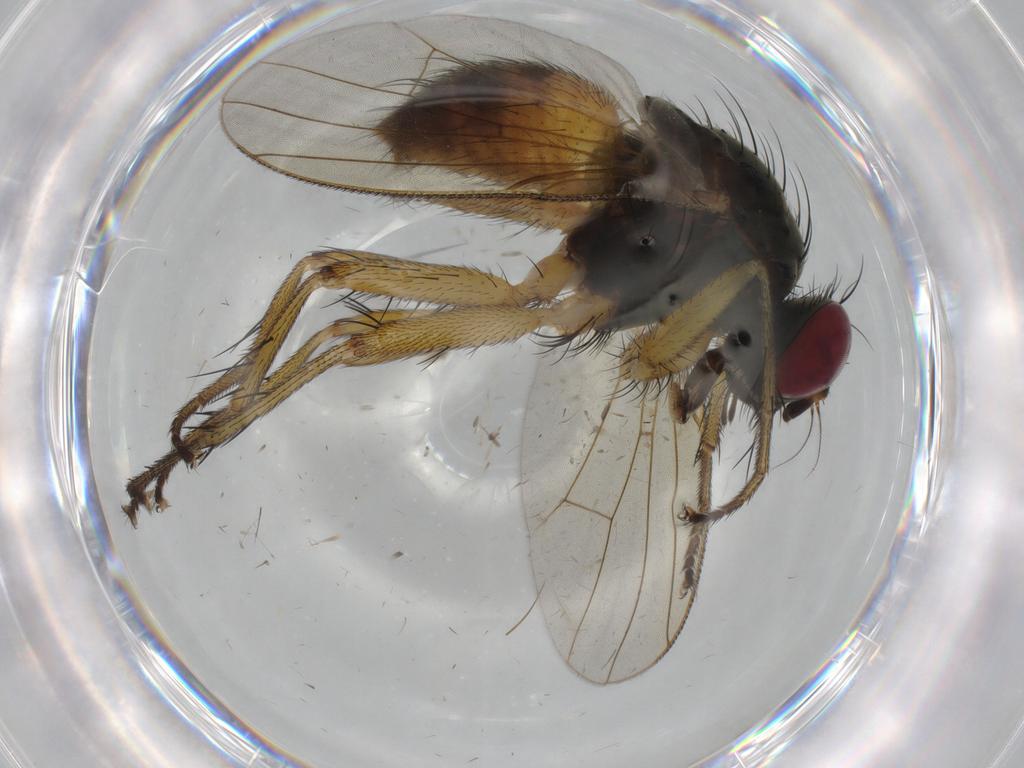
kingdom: Animalia
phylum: Arthropoda
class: Insecta
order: Diptera
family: Muscidae
